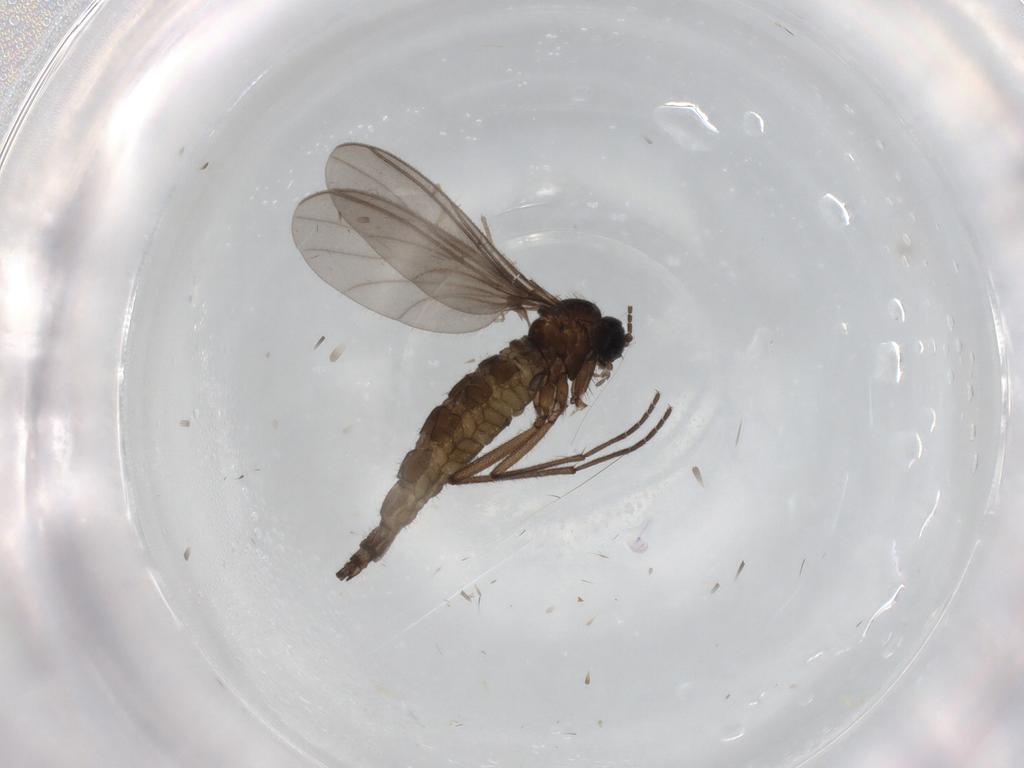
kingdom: Animalia
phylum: Arthropoda
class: Insecta
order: Diptera
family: Sciaridae
